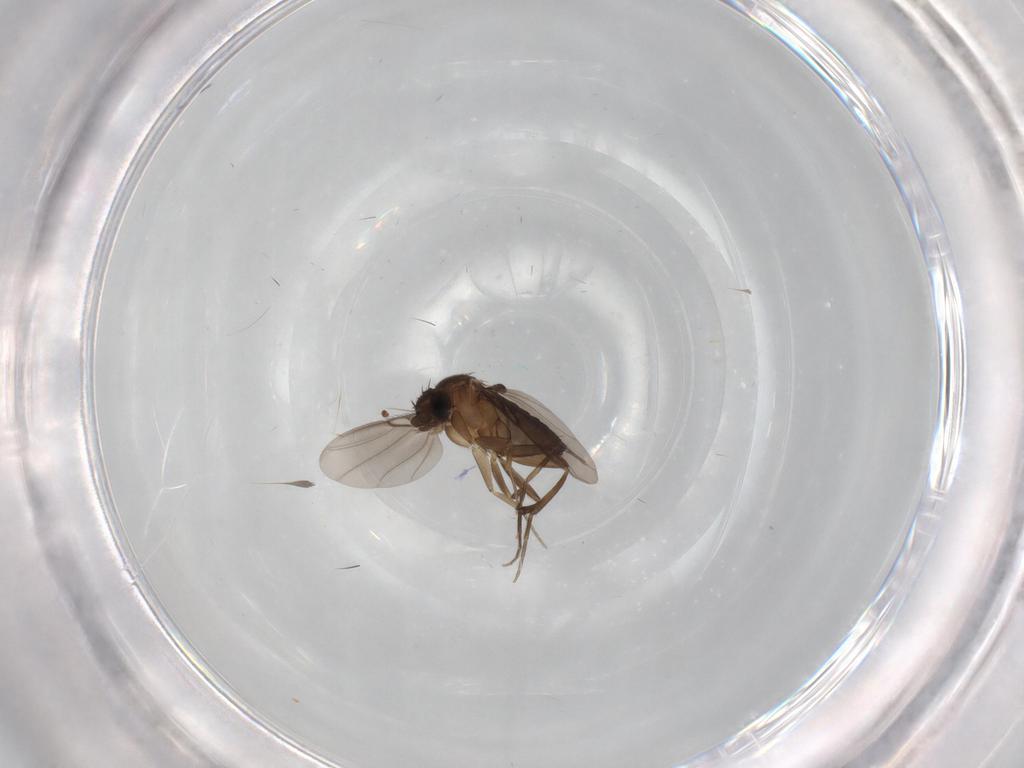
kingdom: Animalia
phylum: Arthropoda
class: Insecta
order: Diptera
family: Phoridae
